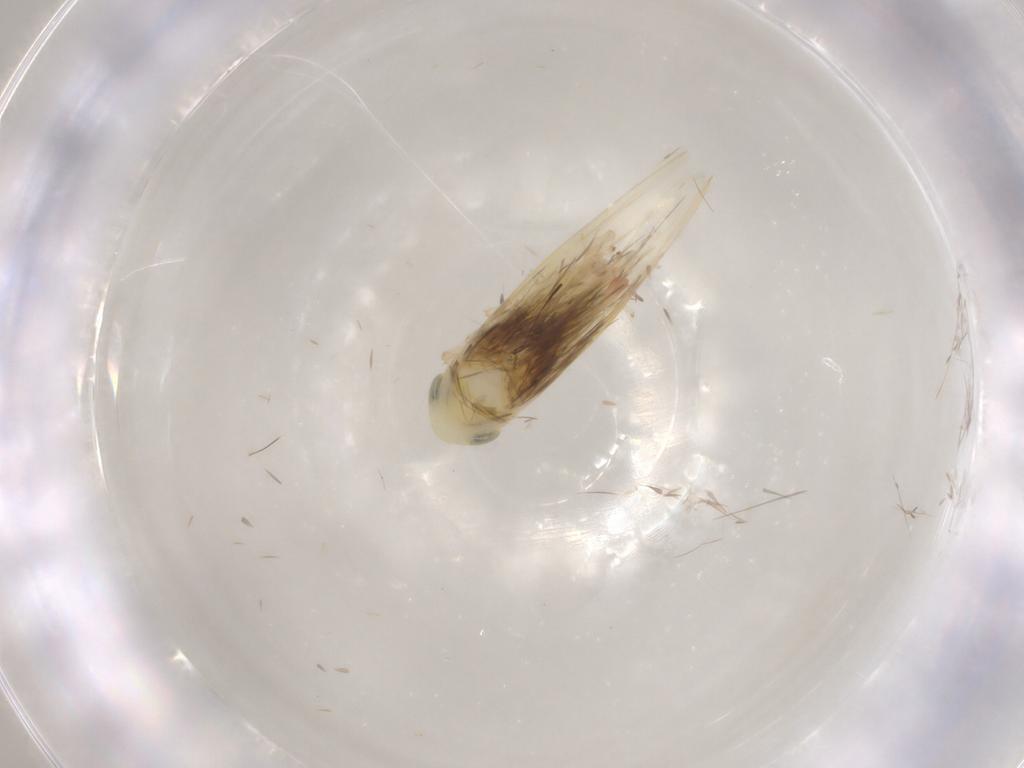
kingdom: Animalia
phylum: Arthropoda
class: Insecta
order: Hemiptera
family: Cicadellidae
